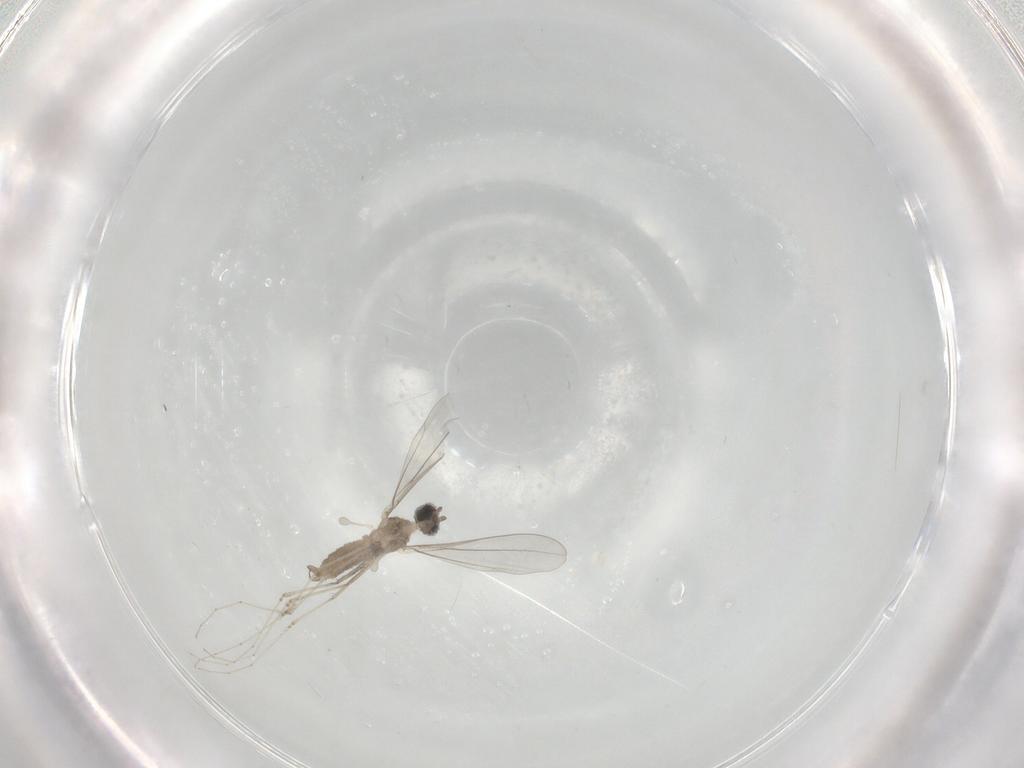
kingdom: Animalia
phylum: Arthropoda
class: Insecta
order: Diptera
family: Cecidomyiidae
